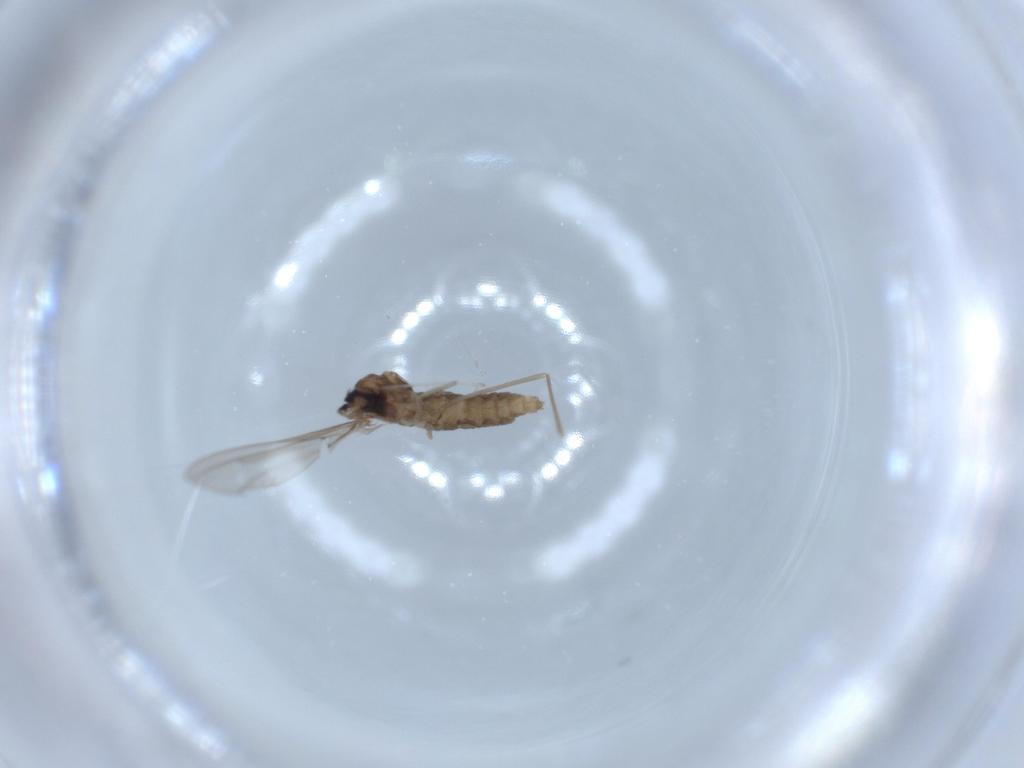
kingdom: Animalia
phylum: Arthropoda
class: Insecta
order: Diptera
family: Cecidomyiidae
